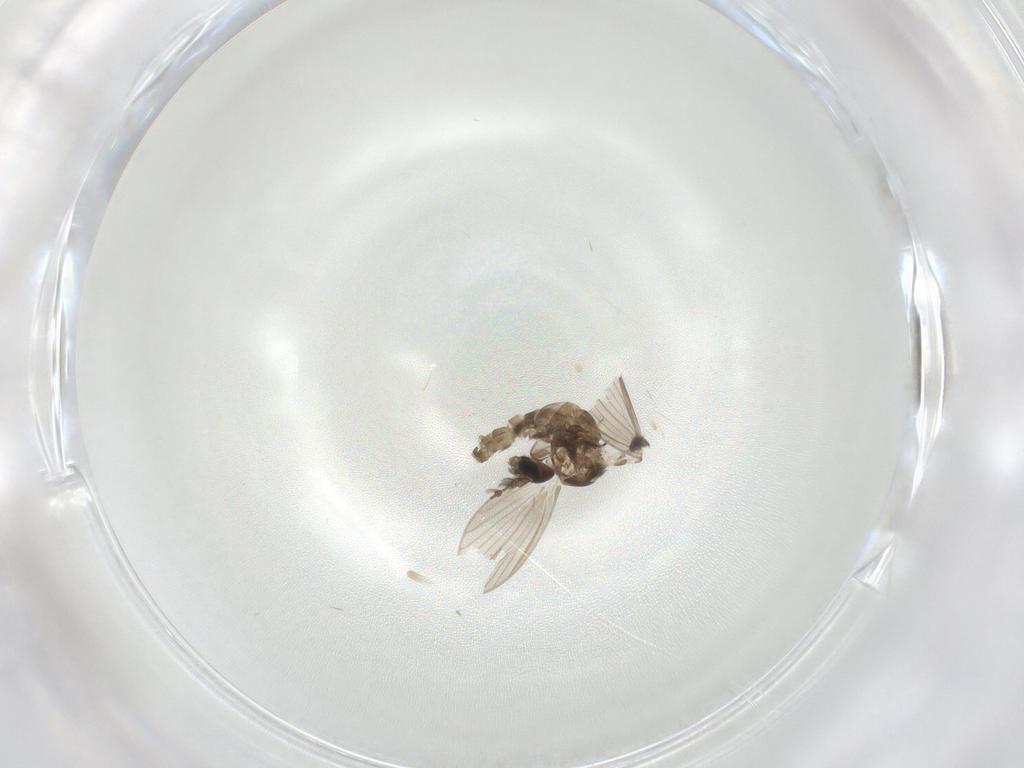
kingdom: Animalia
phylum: Arthropoda
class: Insecta
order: Diptera
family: Psychodidae
